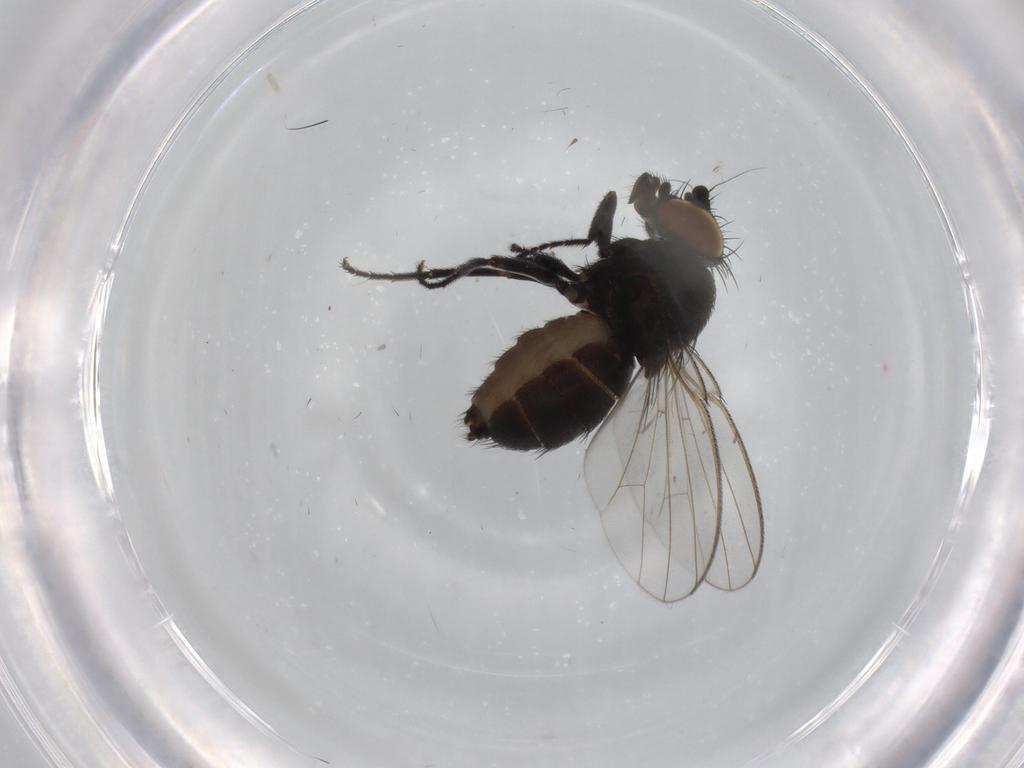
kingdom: Animalia
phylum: Arthropoda
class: Insecta
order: Diptera
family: Milichiidae
